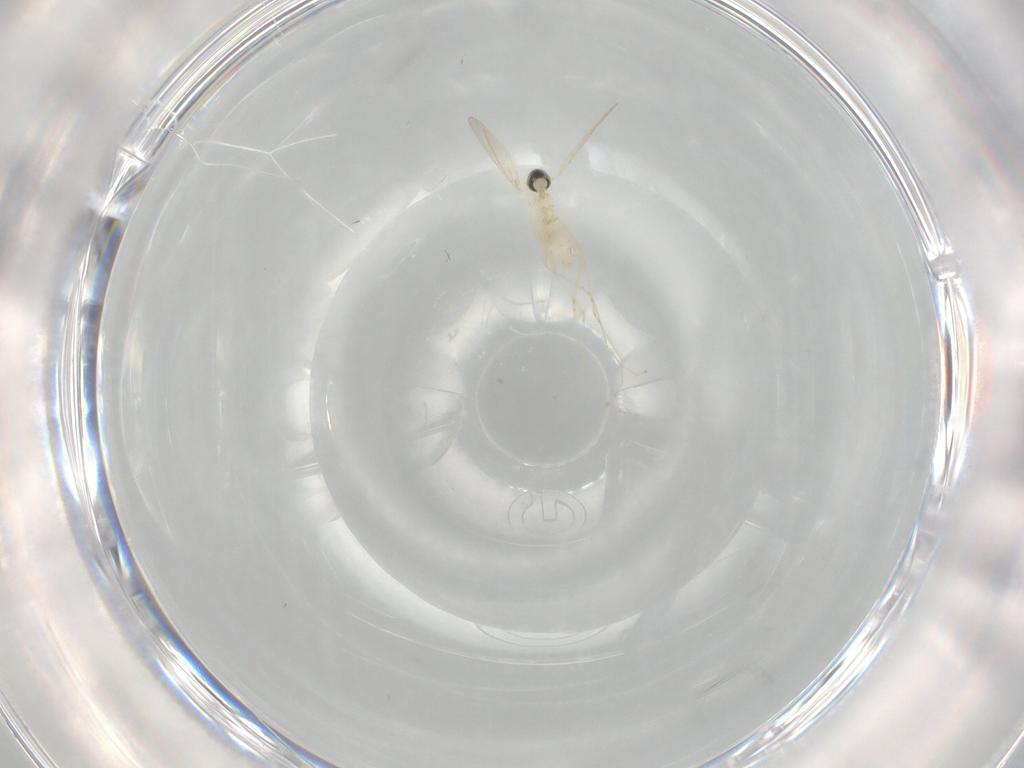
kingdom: Animalia
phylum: Arthropoda
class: Insecta
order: Diptera
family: Cecidomyiidae
